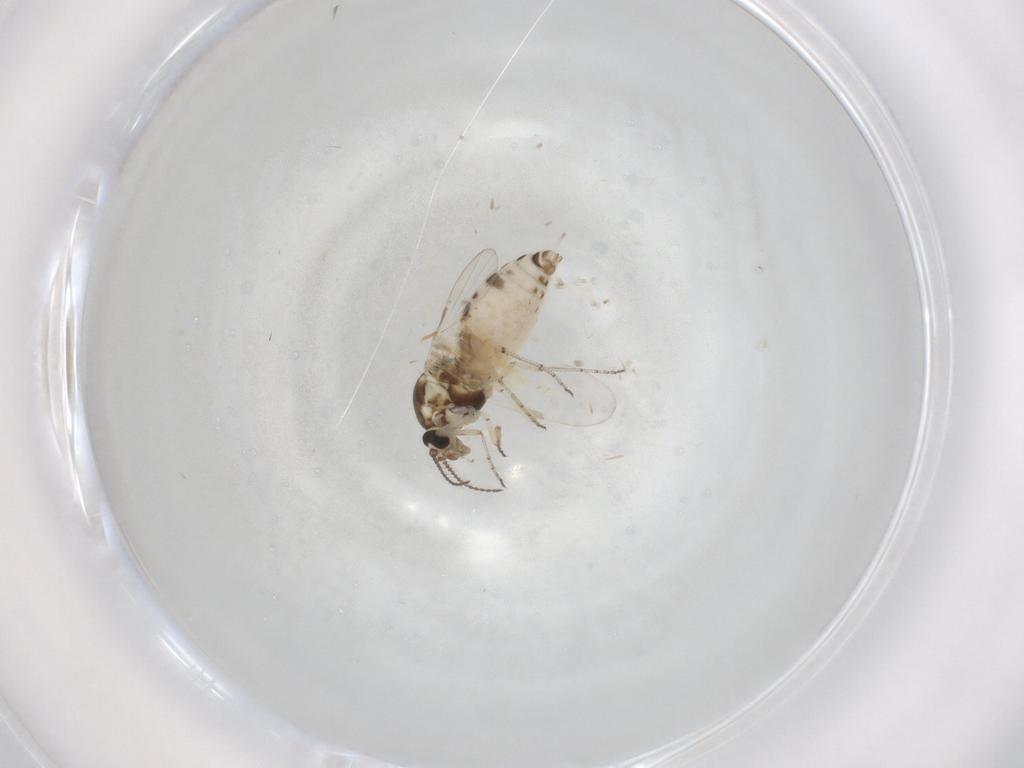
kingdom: Animalia
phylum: Arthropoda
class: Insecta
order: Diptera
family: Ceratopogonidae
